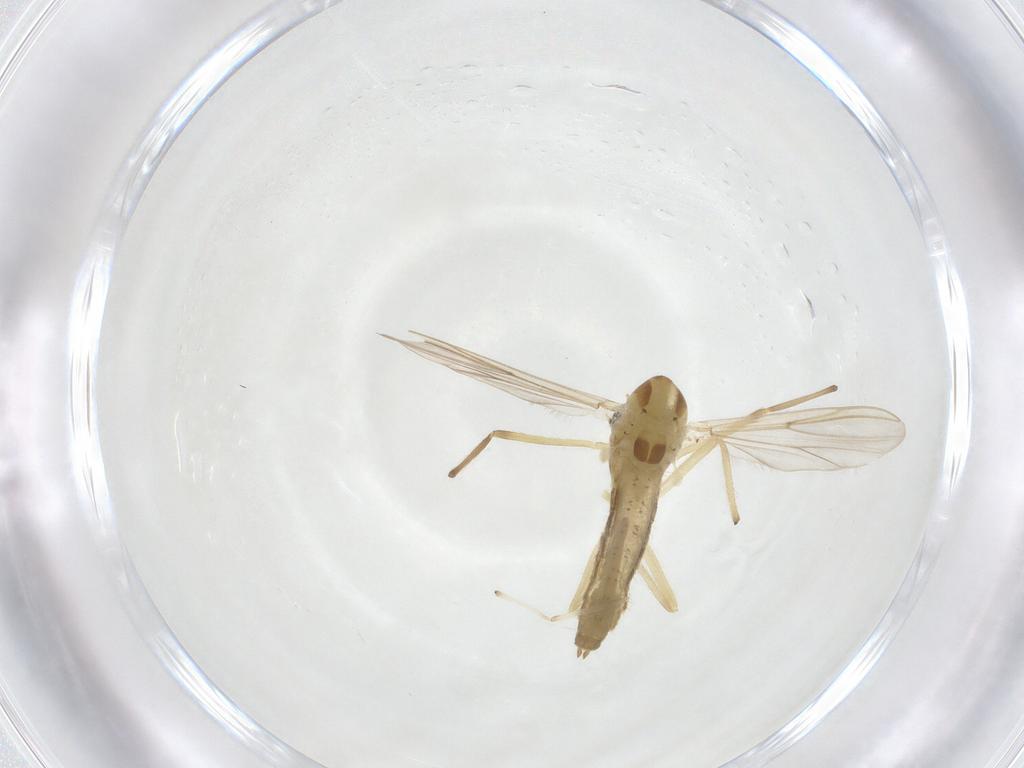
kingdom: Animalia
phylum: Arthropoda
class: Insecta
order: Diptera
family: Chironomidae
